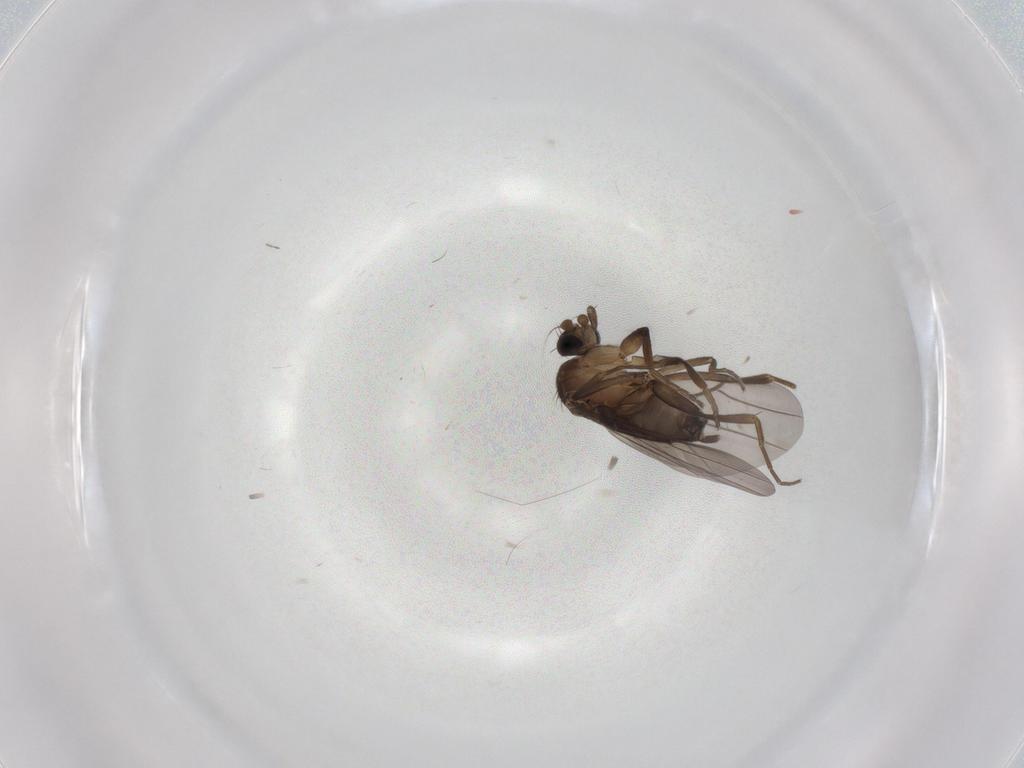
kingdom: Animalia
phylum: Arthropoda
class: Insecta
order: Diptera
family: Phoridae
